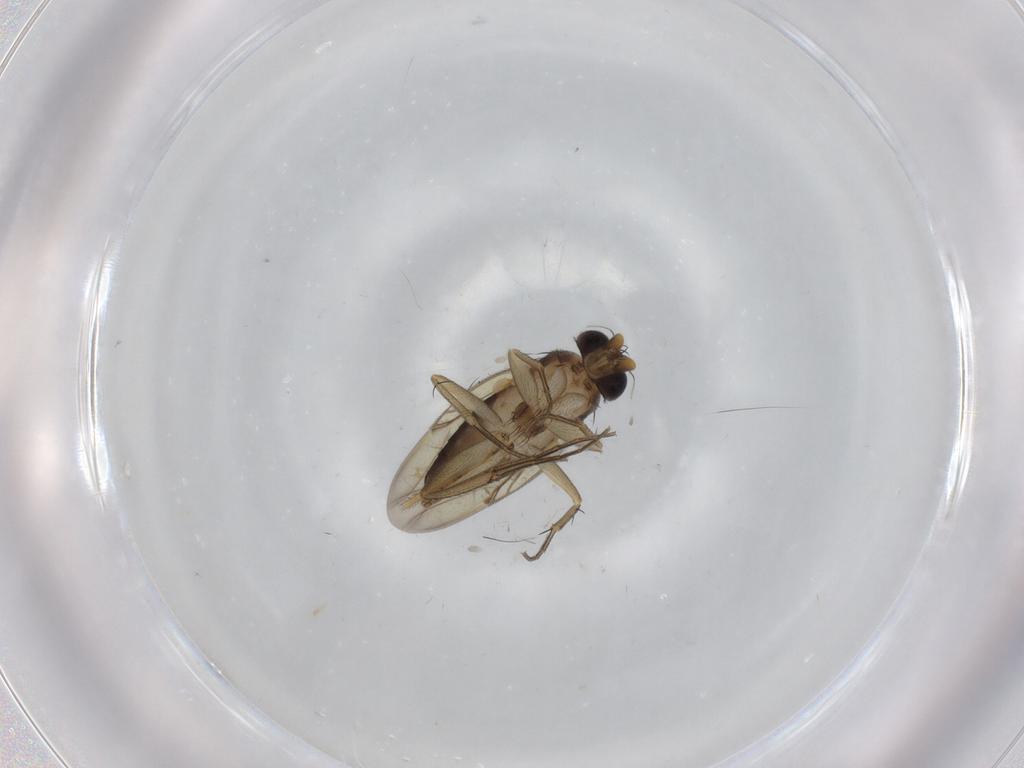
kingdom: Animalia
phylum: Arthropoda
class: Insecta
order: Diptera
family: Phoridae
